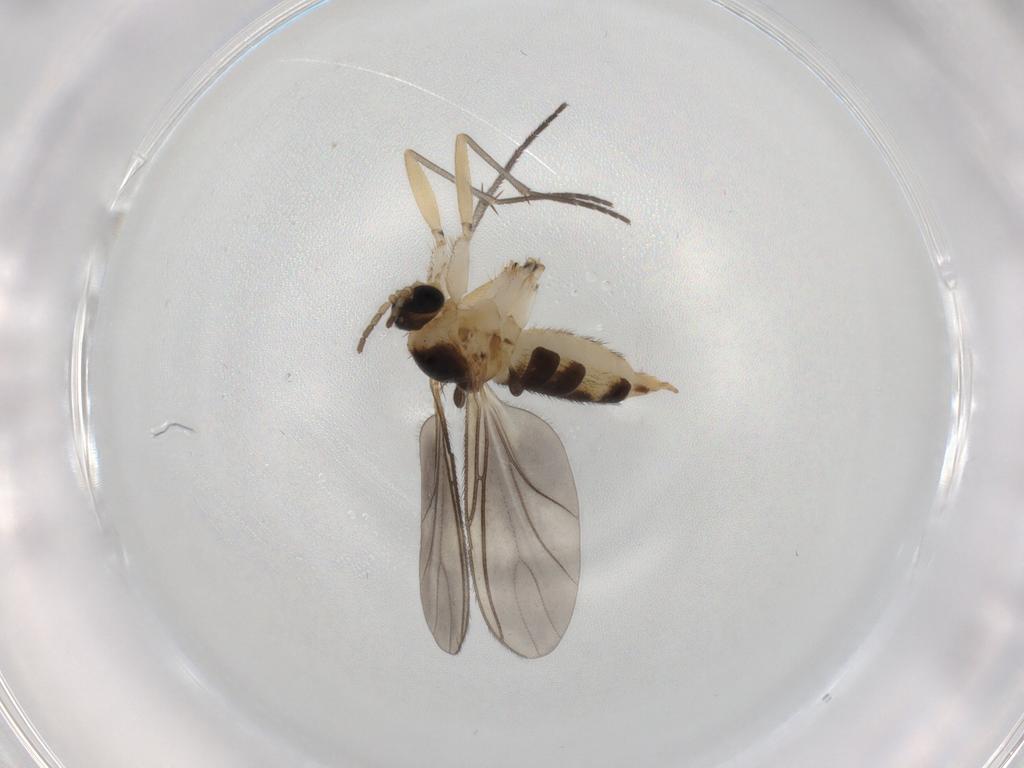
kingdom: Animalia
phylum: Arthropoda
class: Insecta
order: Diptera
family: Sciaridae
